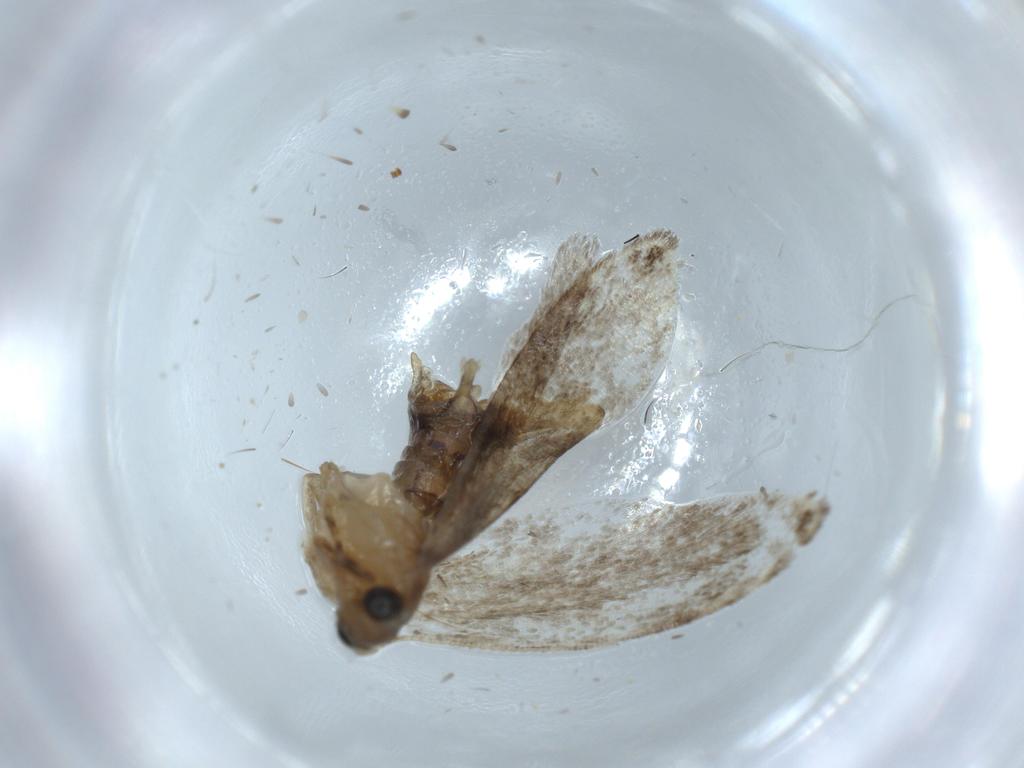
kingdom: Animalia
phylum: Arthropoda
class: Insecta
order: Lepidoptera
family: Tineidae
